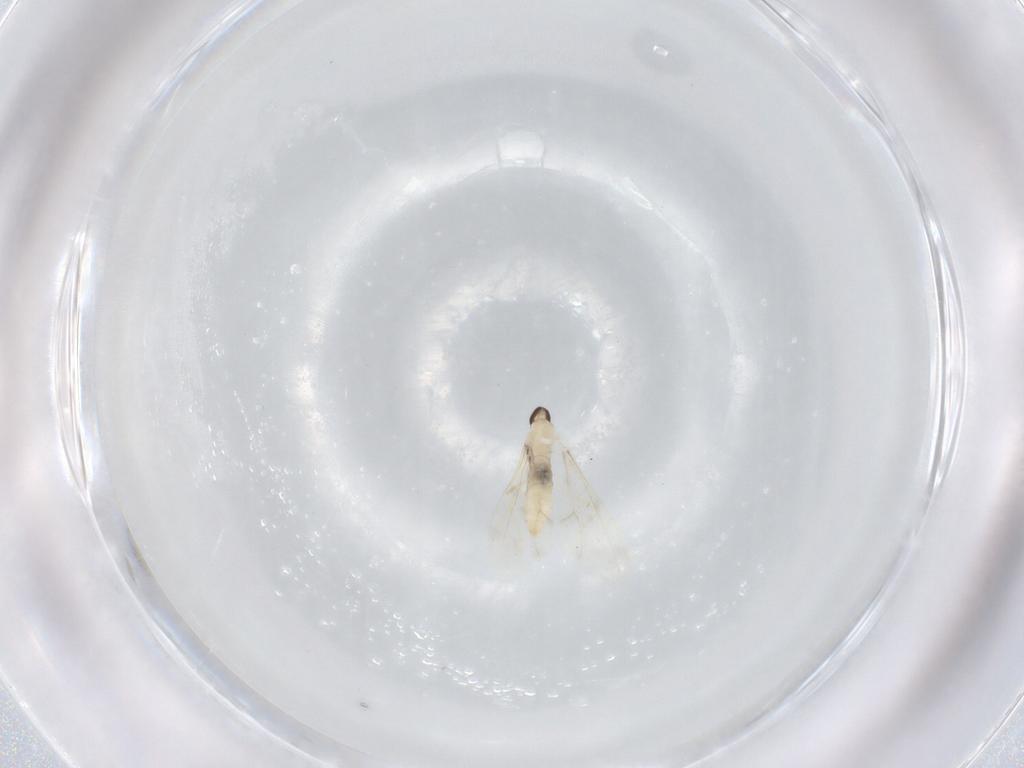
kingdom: Animalia
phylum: Arthropoda
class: Insecta
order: Diptera
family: Cecidomyiidae
